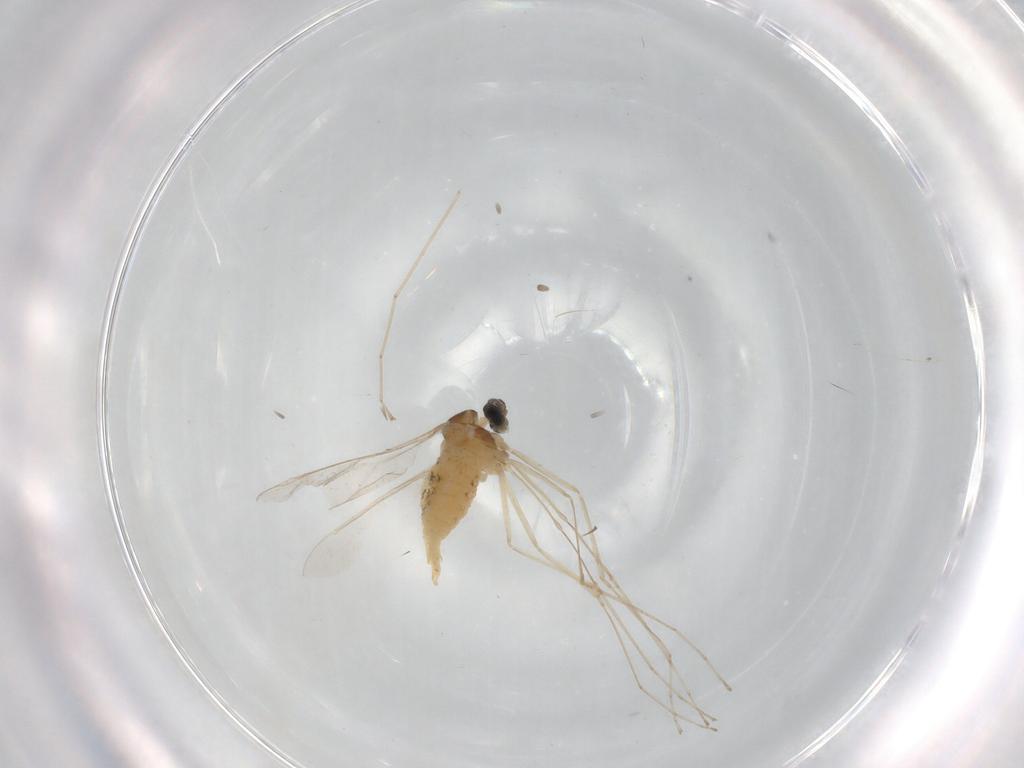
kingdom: Animalia
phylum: Arthropoda
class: Insecta
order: Diptera
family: Cecidomyiidae
